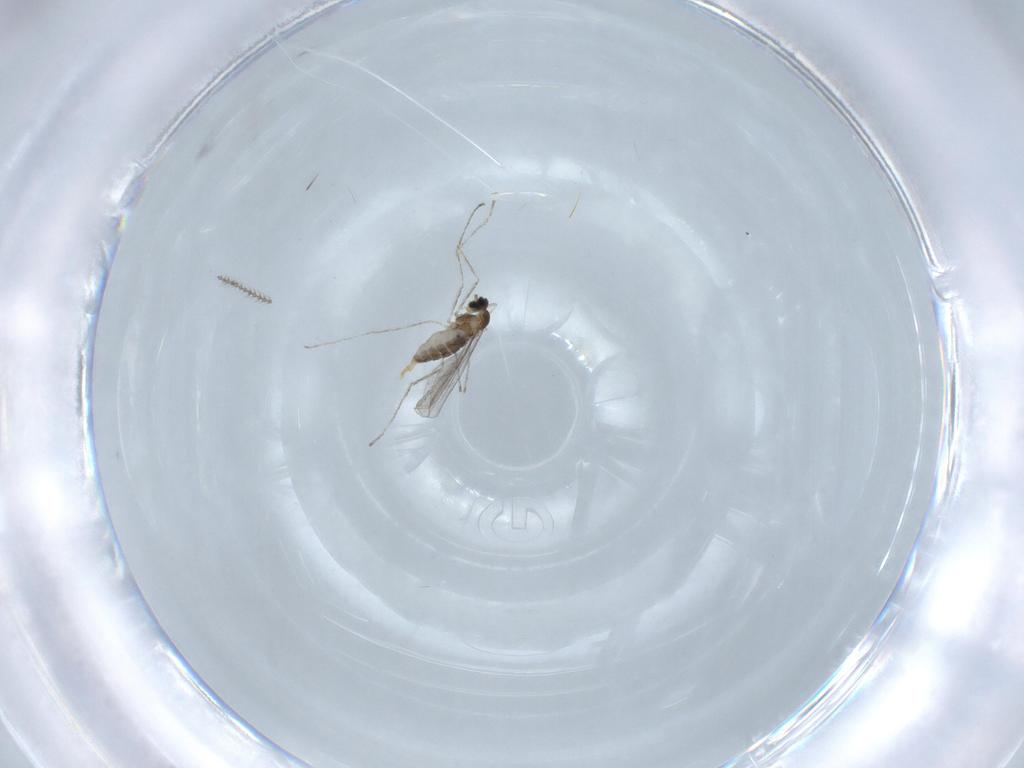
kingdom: Animalia
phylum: Arthropoda
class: Insecta
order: Diptera
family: Cecidomyiidae
